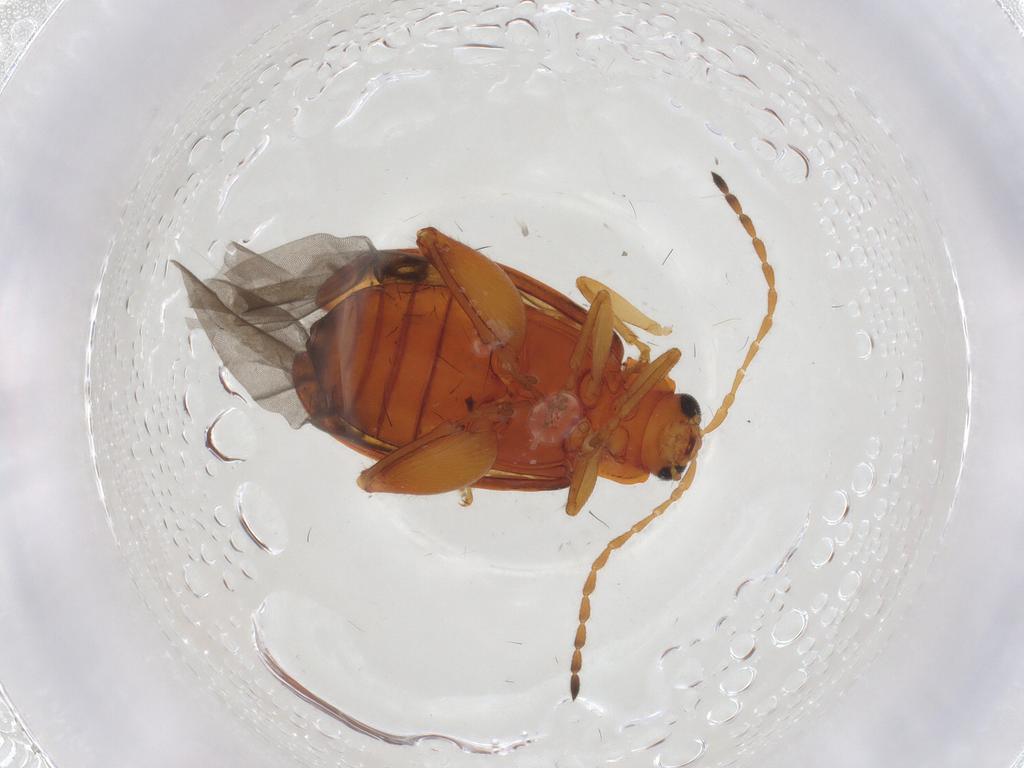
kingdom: Animalia
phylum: Arthropoda
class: Insecta
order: Coleoptera
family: Chrysomelidae
